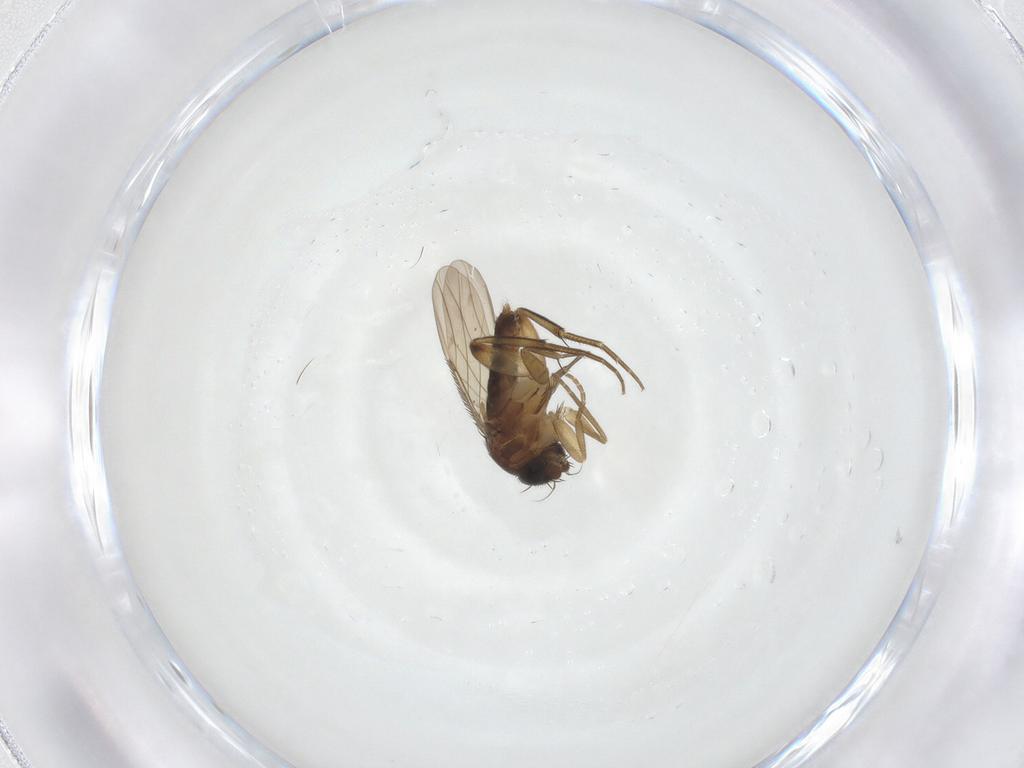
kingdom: Animalia
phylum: Arthropoda
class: Insecta
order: Diptera
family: Phoridae
